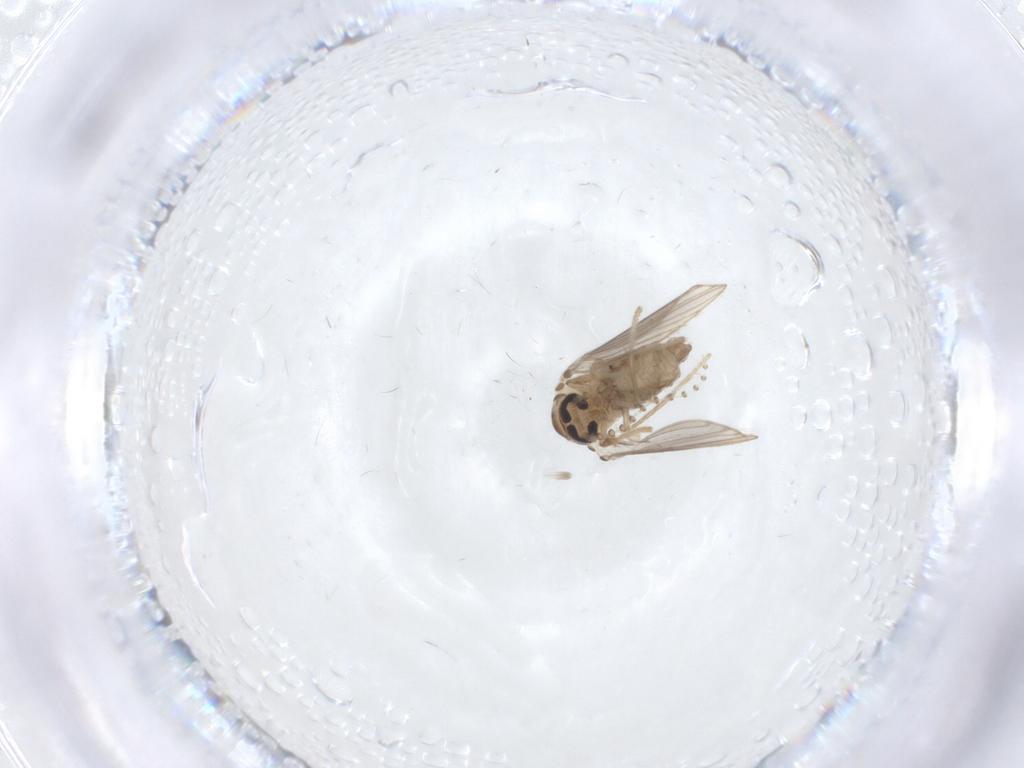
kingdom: Animalia
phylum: Arthropoda
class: Insecta
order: Diptera
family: Psychodidae
